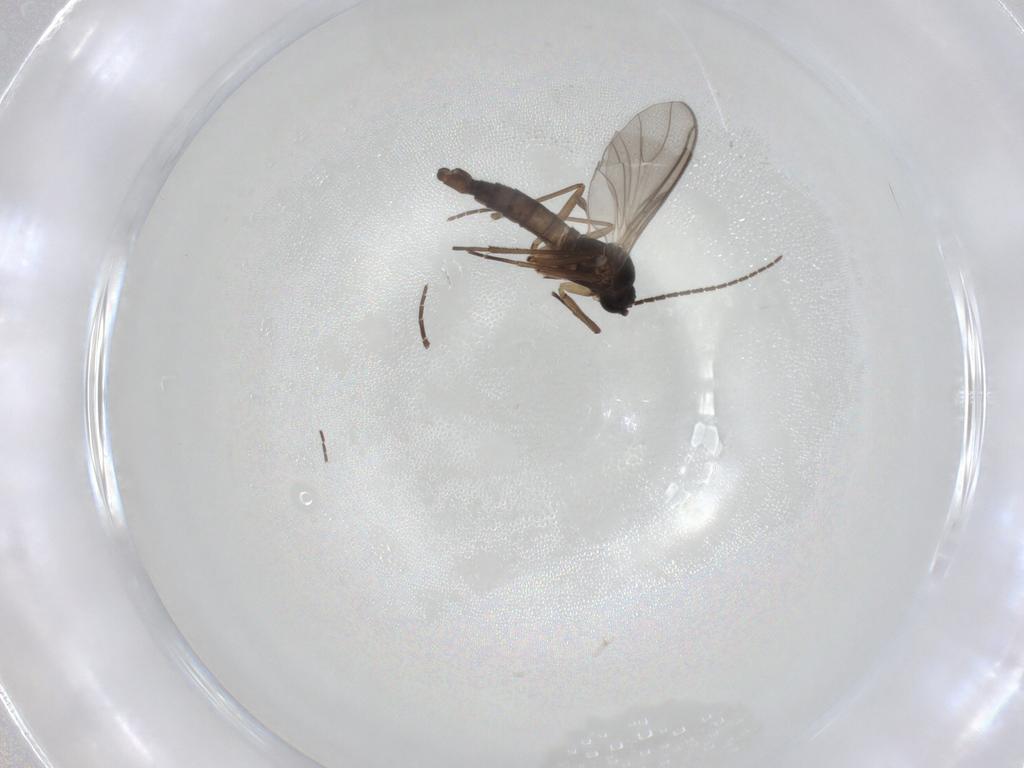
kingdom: Animalia
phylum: Arthropoda
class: Insecta
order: Diptera
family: Sciaridae
